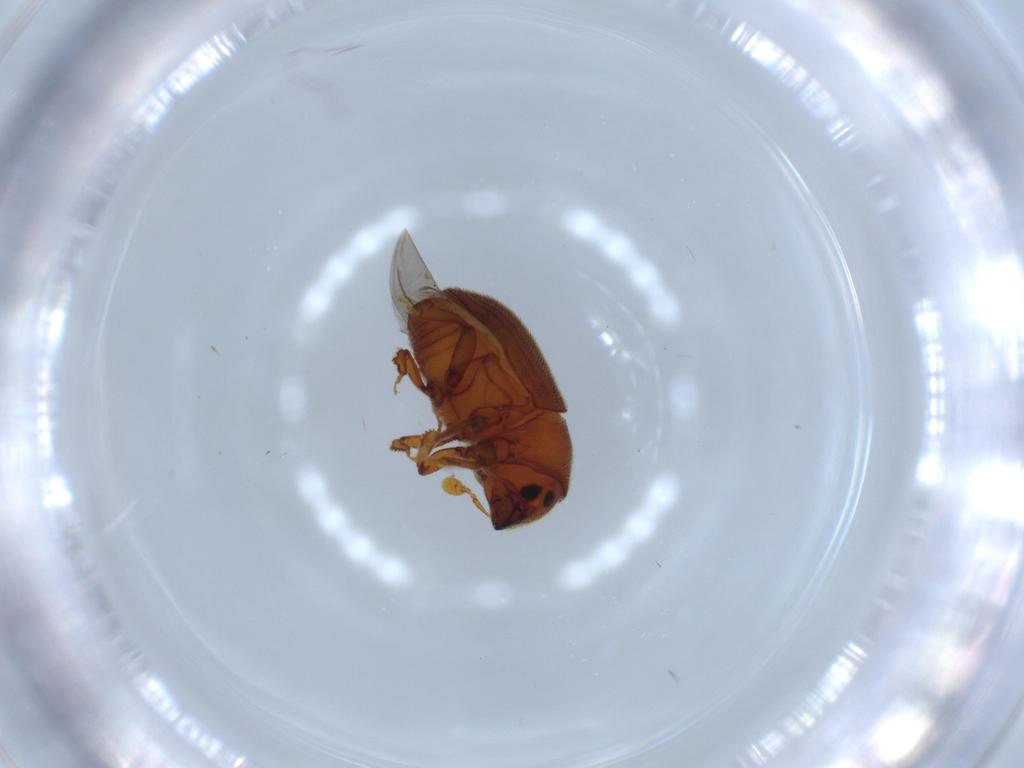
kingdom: Animalia
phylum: Arthropoda
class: Insecta
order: Coleoptera
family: Curculionidae
